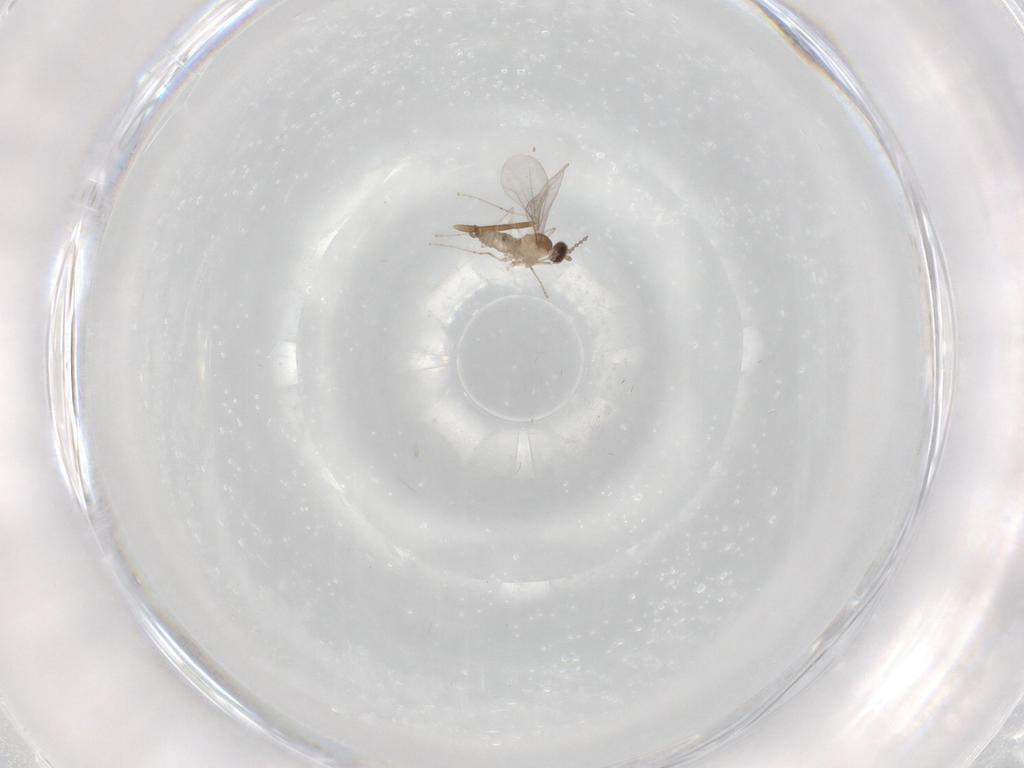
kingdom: Animalia
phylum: Arthropoda
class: Insecta
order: Diptera
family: Cecidomyiidae
